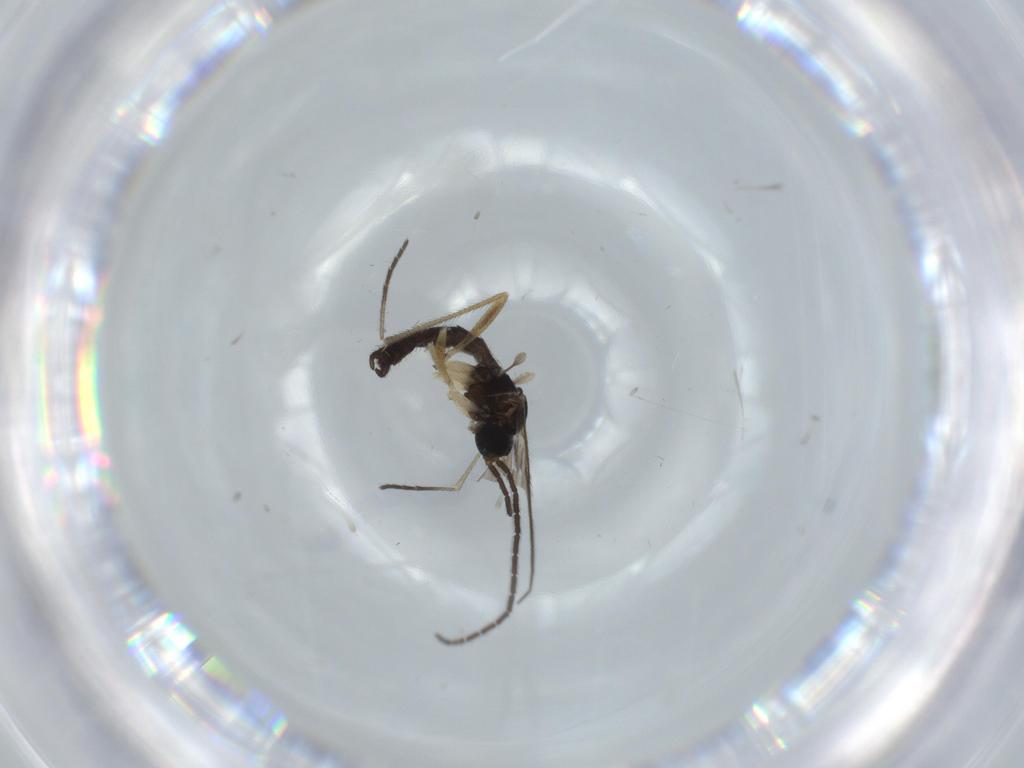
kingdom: Animalia
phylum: Arthropoda
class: Insecta
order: Diptera
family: Sciaridae
